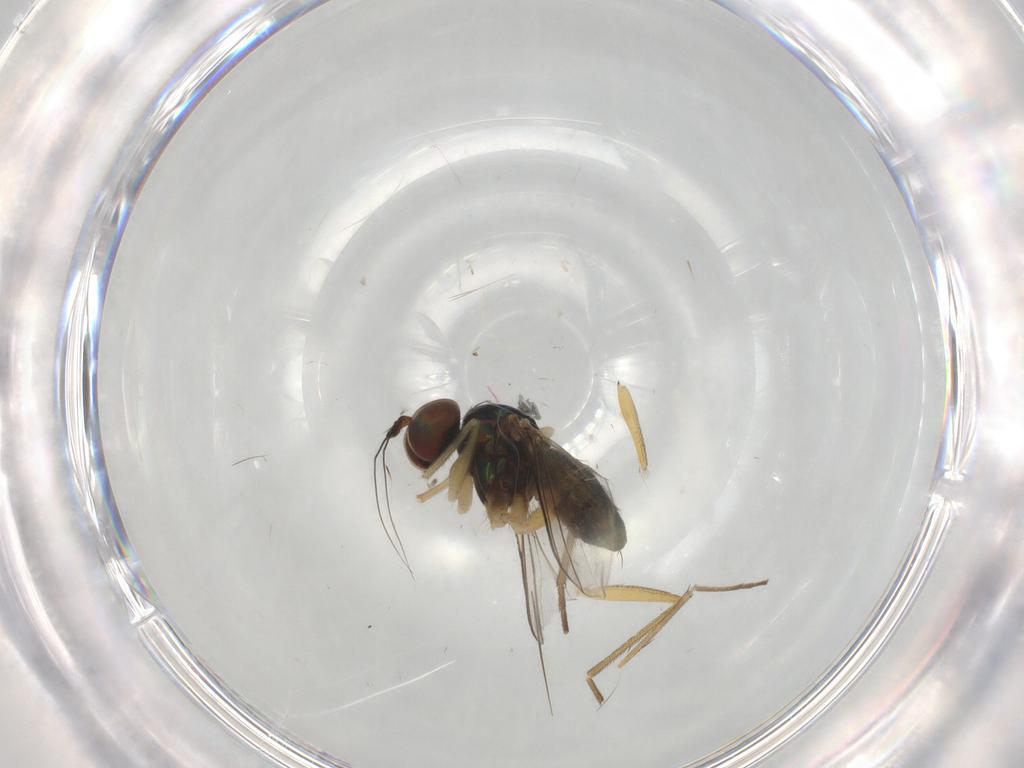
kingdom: Animalia
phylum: Arthropoda
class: Insecta
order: Diptera
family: Dolichopodidae
